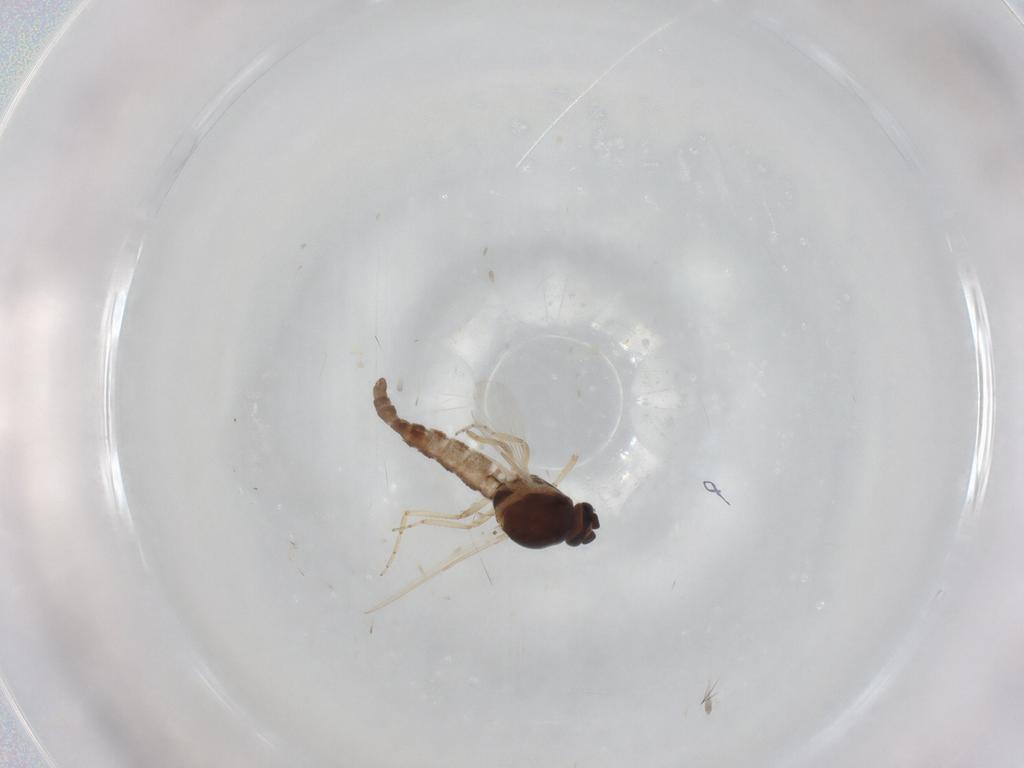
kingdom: Animalia
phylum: Arthropoda
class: Insecta
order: Diptera
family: Ceratopogonidae
